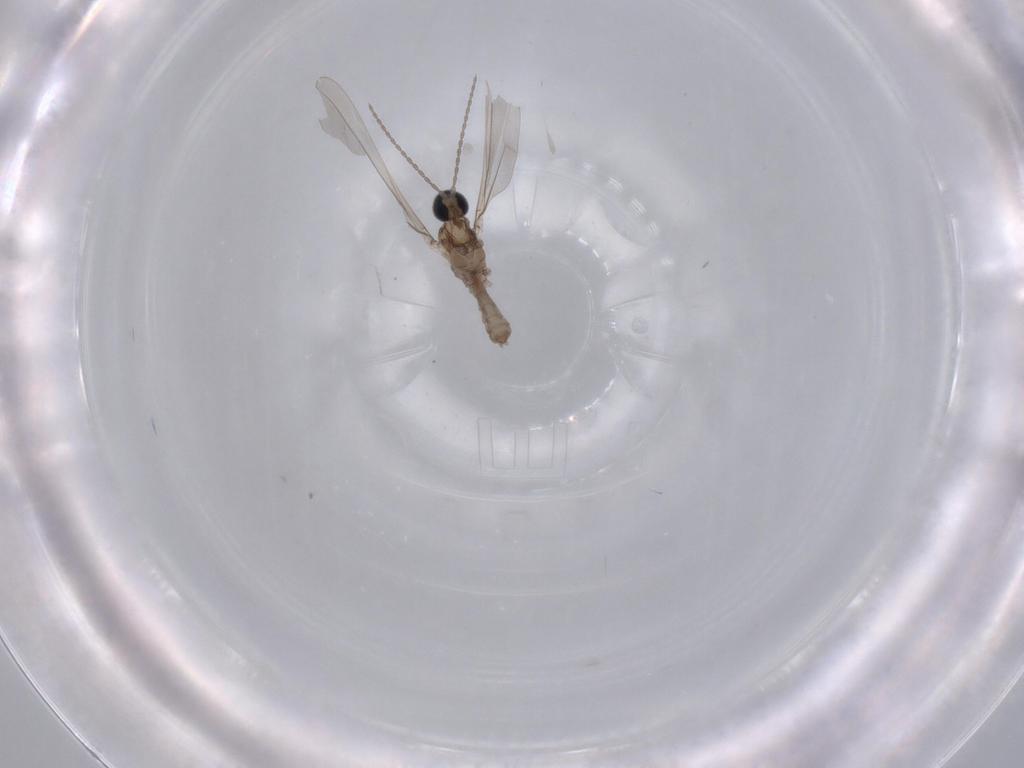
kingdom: Animalia
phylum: Arthropoda
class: Insecta
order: Diptera
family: Cecidomyiidae
